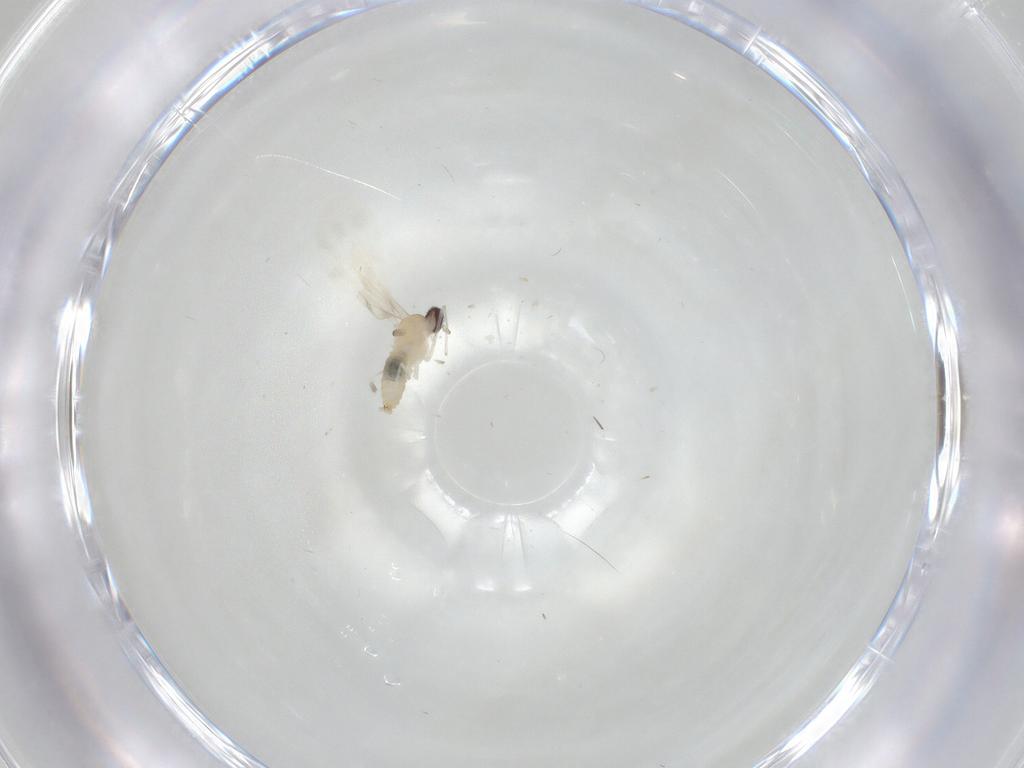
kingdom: Animalia
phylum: Arthropoda
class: Insecta
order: Diptera
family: Cecidomyiidae
